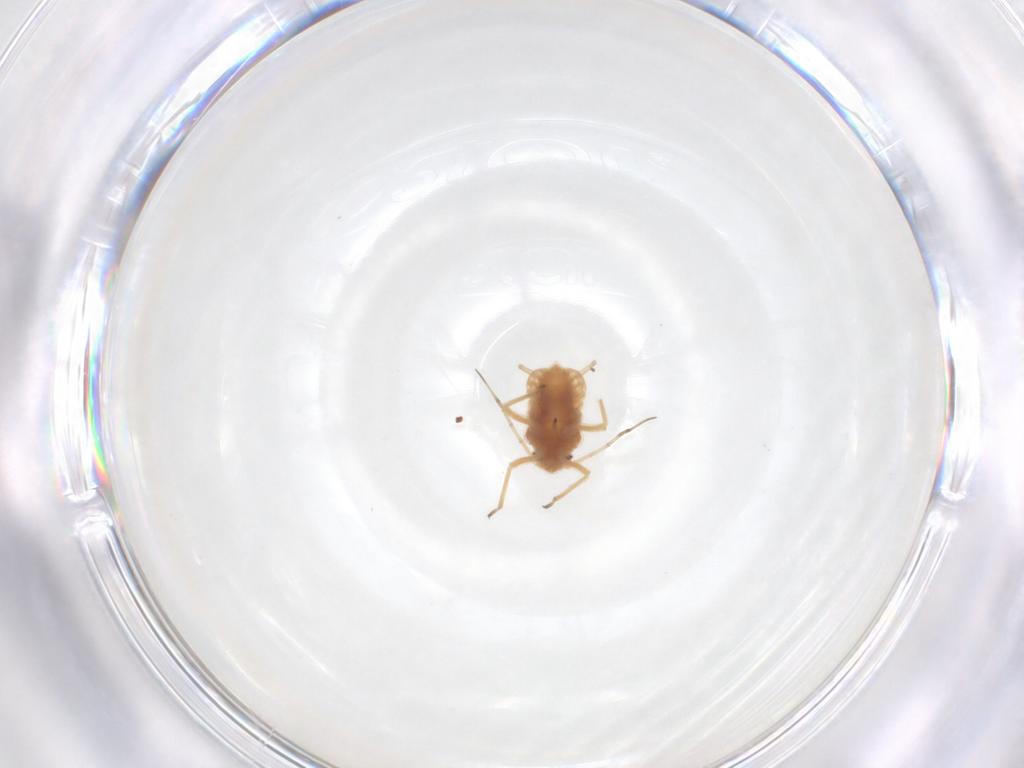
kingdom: Animalia
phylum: Arthropoda
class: Insecta
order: Hemiptera
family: Aphididae
